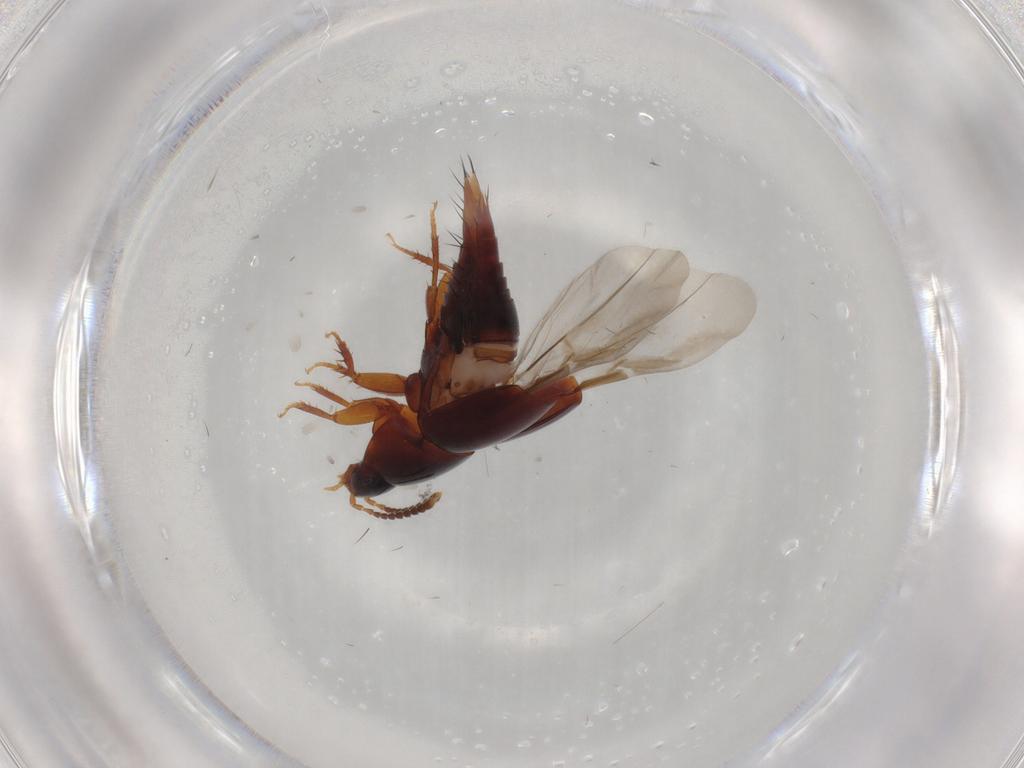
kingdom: Animalia
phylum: Arthropoda
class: Insecta
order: Coleoptera
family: Staphylinidae
